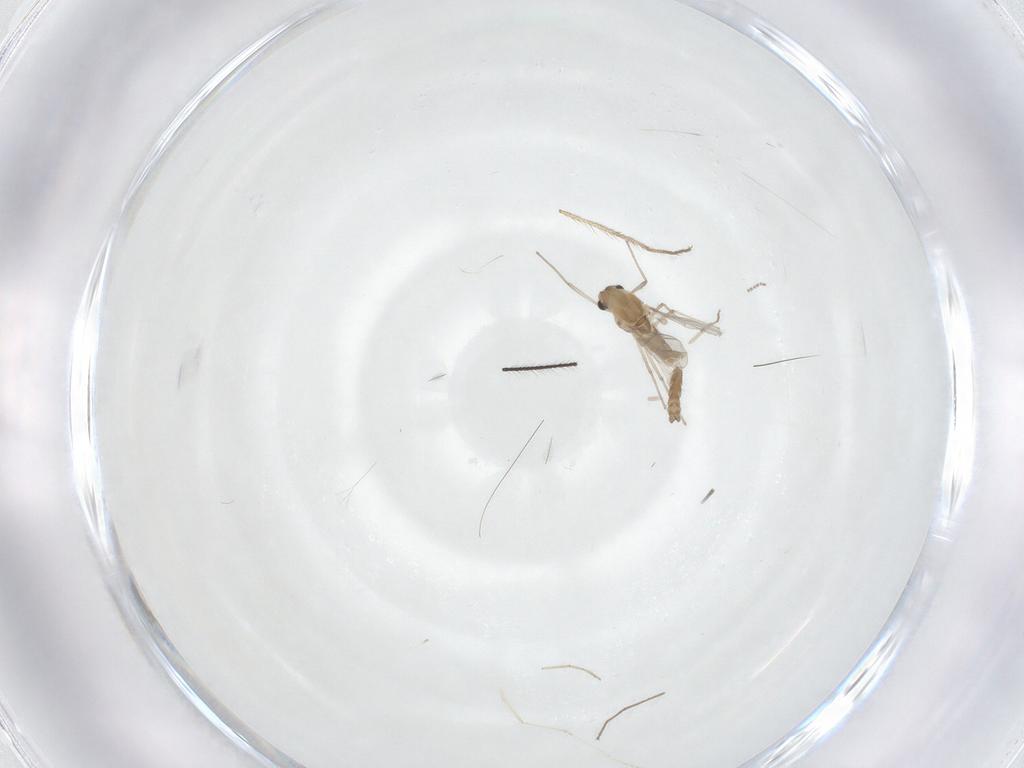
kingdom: Animalia
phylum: Arthropoda
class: Insecta
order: Diptera
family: Chironomidae
